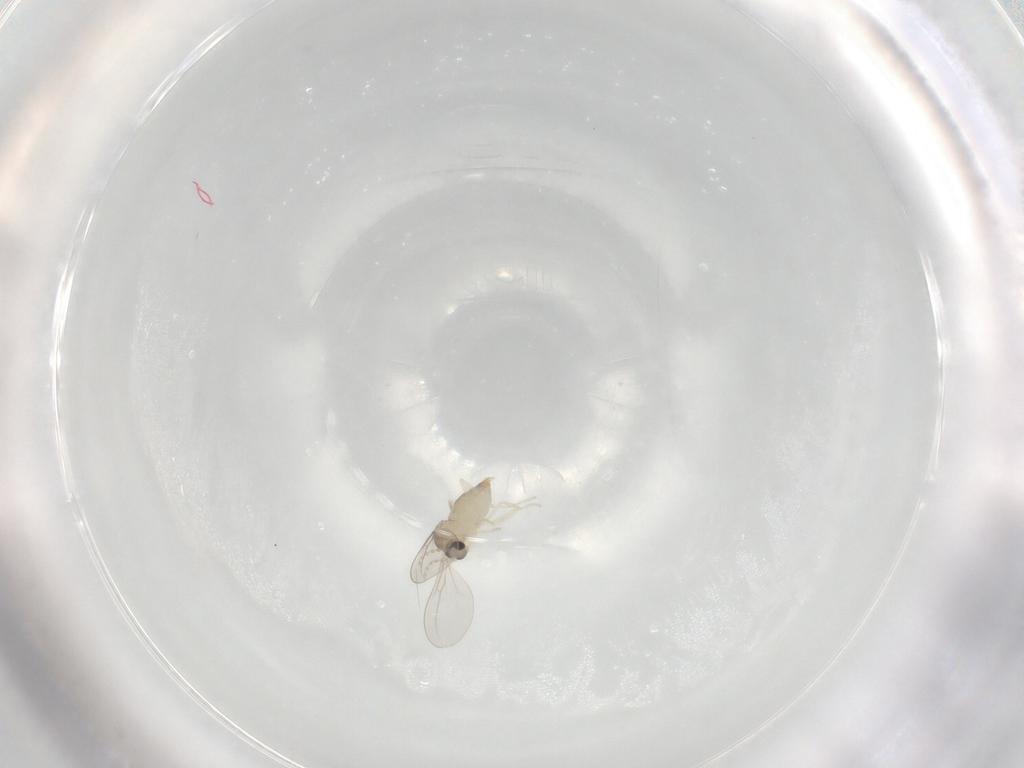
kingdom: Animalia
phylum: Arthropoda
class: Insecta
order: Diptera
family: Cecidomyiidae
